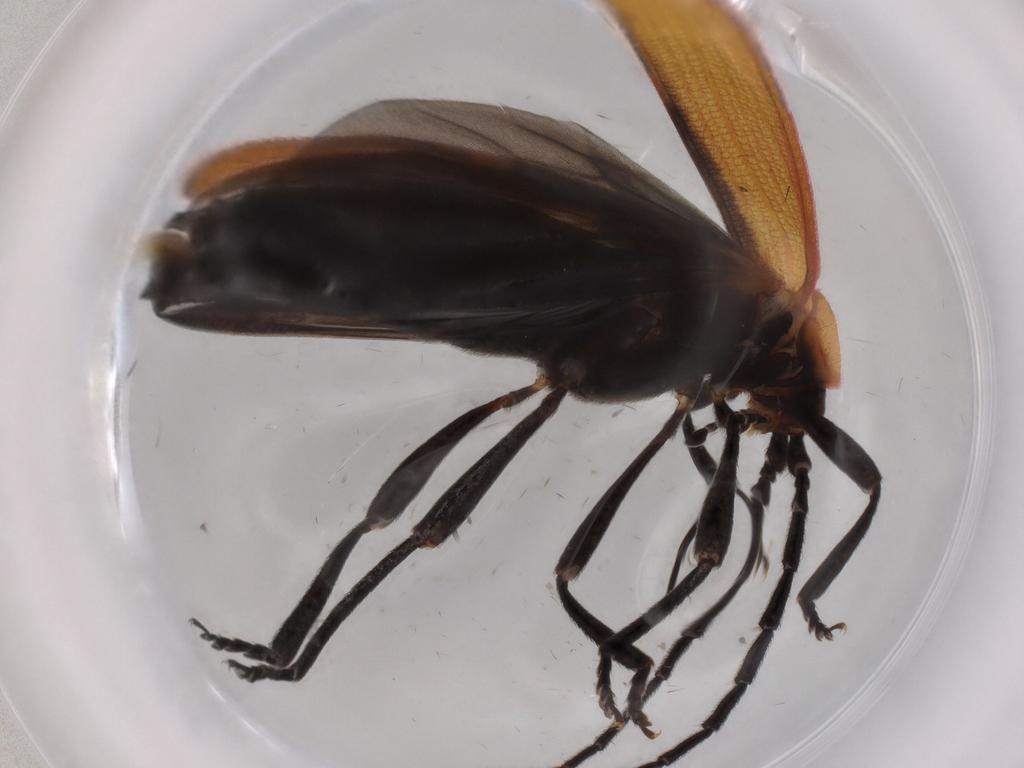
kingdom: Animalia
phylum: Arthropoda
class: Insecta
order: Coleoptera
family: Lycidae
